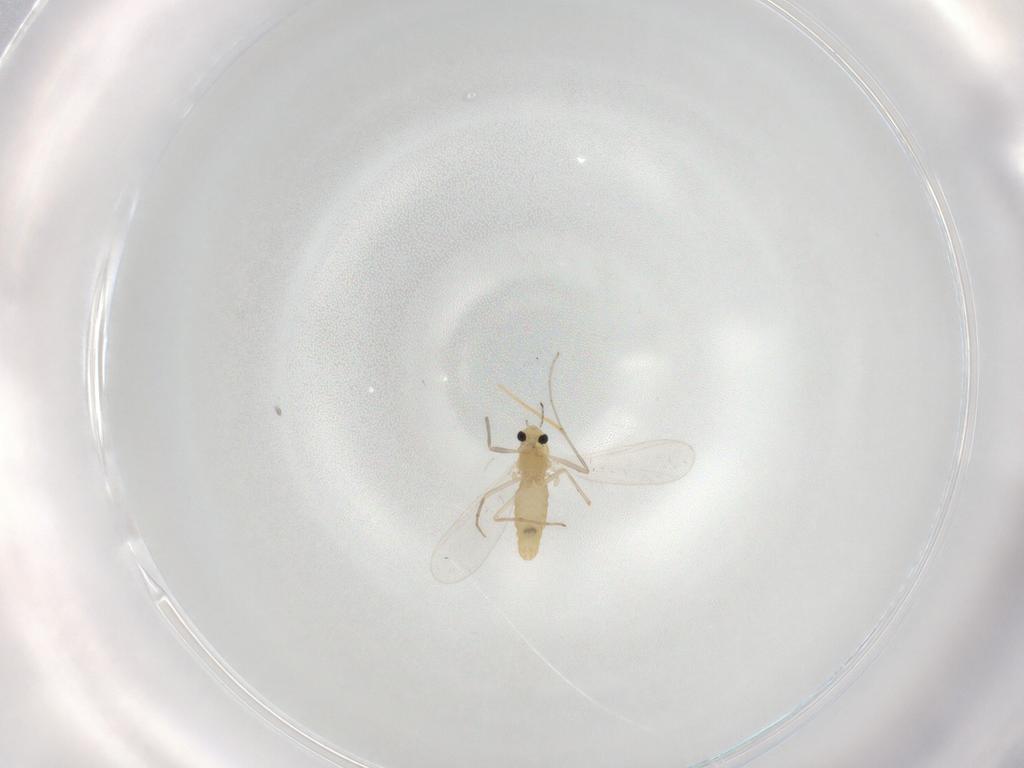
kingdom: Animalia
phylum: Arthropoda
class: Insecta
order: Diptera
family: Chironomidae
